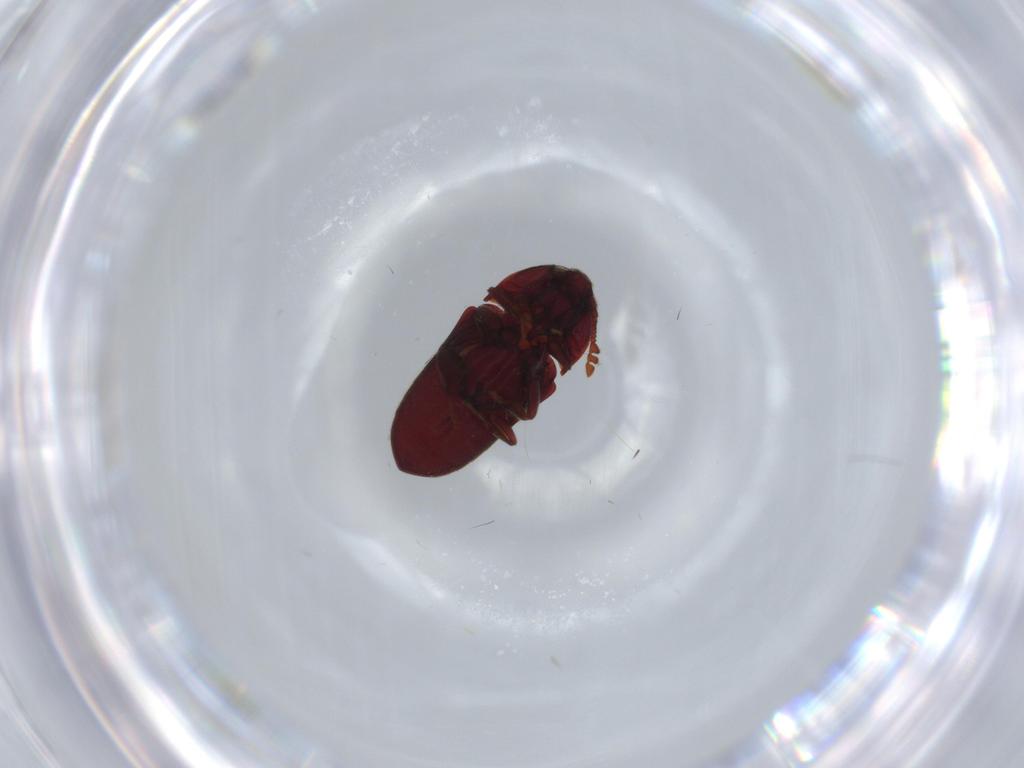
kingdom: Animalia
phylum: Arthropoda
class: Insecta
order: Coleoptera
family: Throscidae
